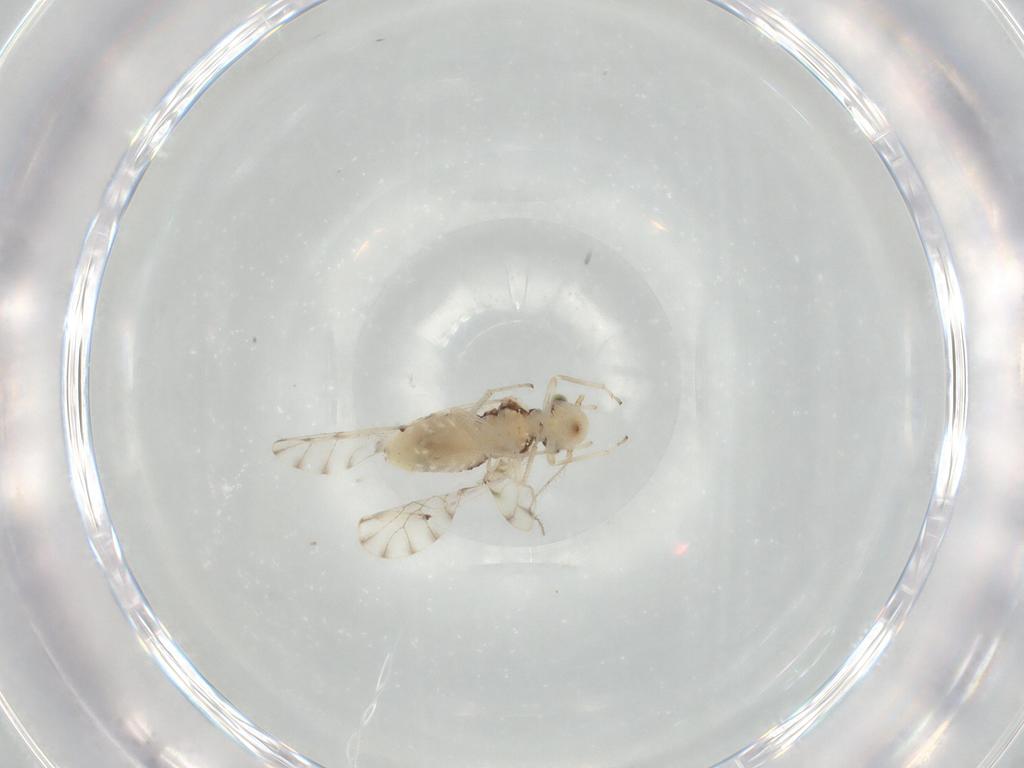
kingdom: Animalia
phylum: Arthropoda
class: Insecta
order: Psocodea
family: Ectopsocidae
